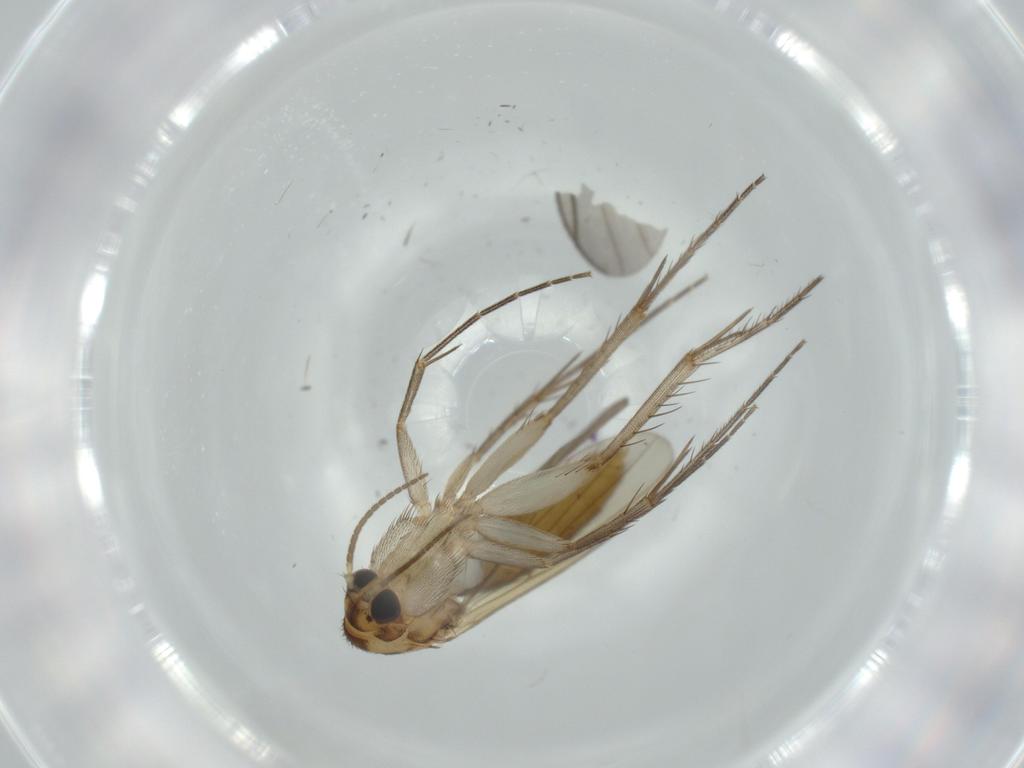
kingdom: Animalia
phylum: Arthropoda
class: Insecta
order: Diptera
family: Mycetophilidae
